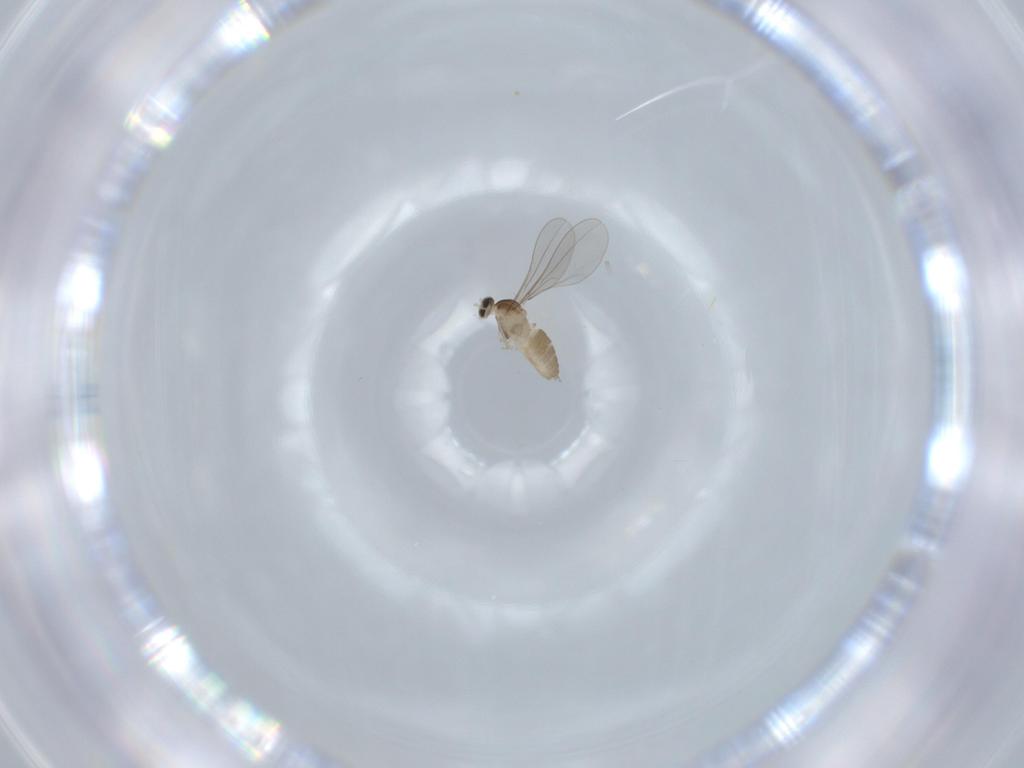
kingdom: Animalia
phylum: Arthropoda
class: Insecta
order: Diptera
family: Cecidomyiidae
